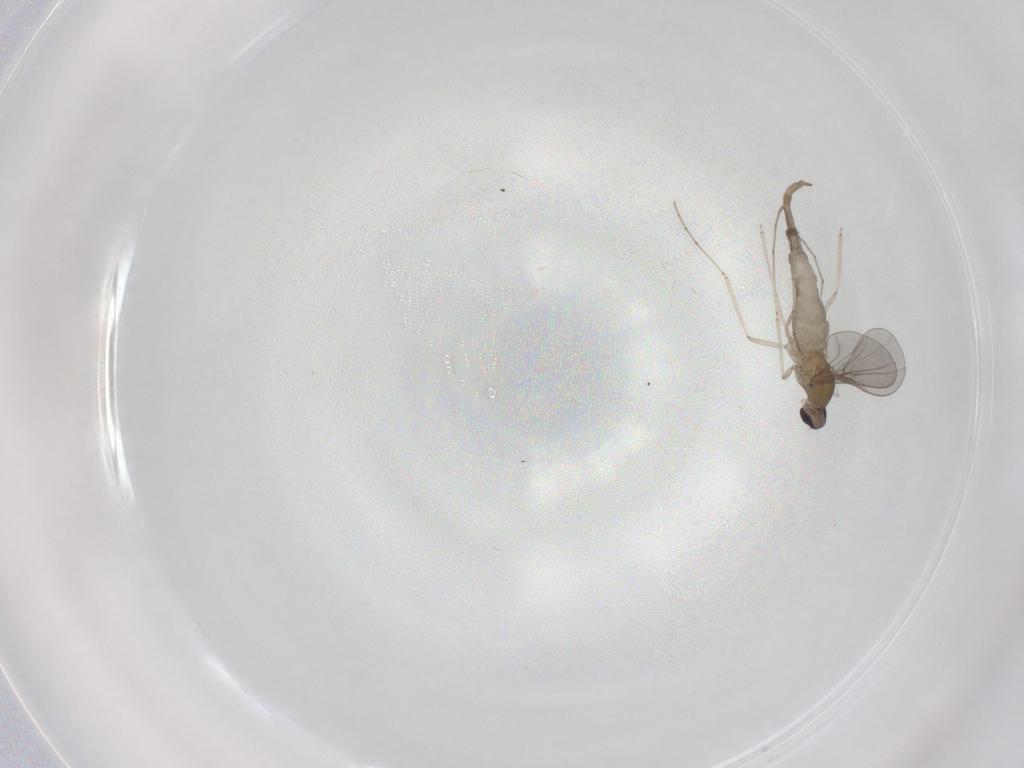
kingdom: Animalia
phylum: Arthropoda
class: Insecta
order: Diptera
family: Cecidomyiidae
